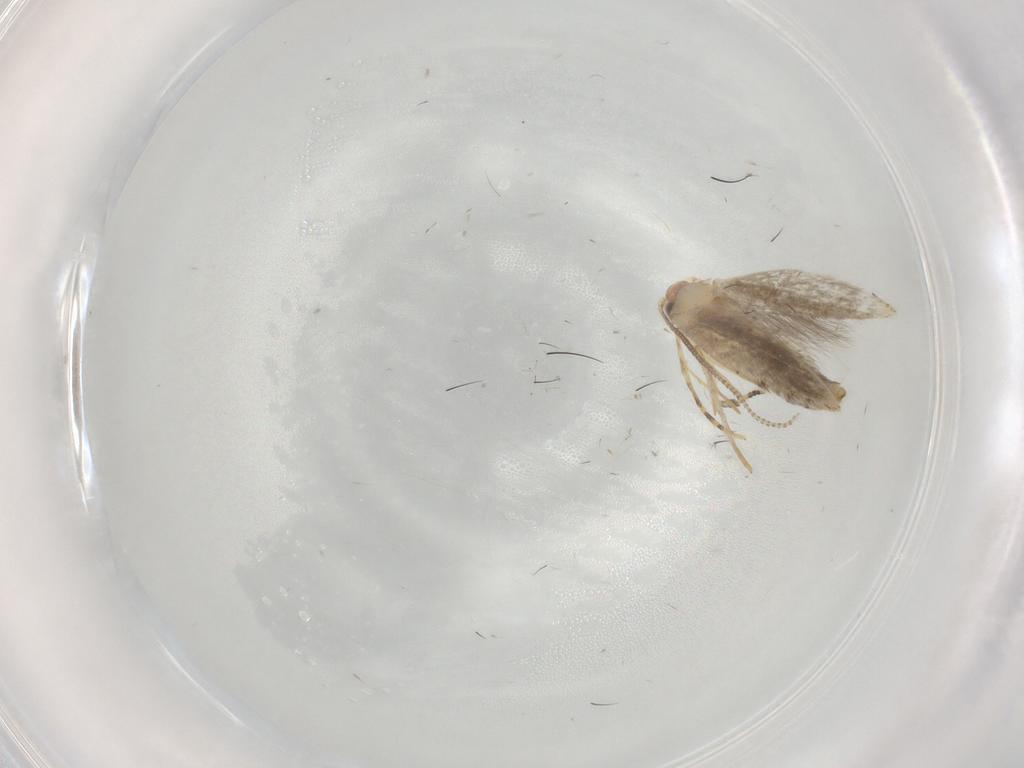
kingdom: Animalia
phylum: Arthropoda
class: Insecta
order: Lepidoptera
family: Tineidae
